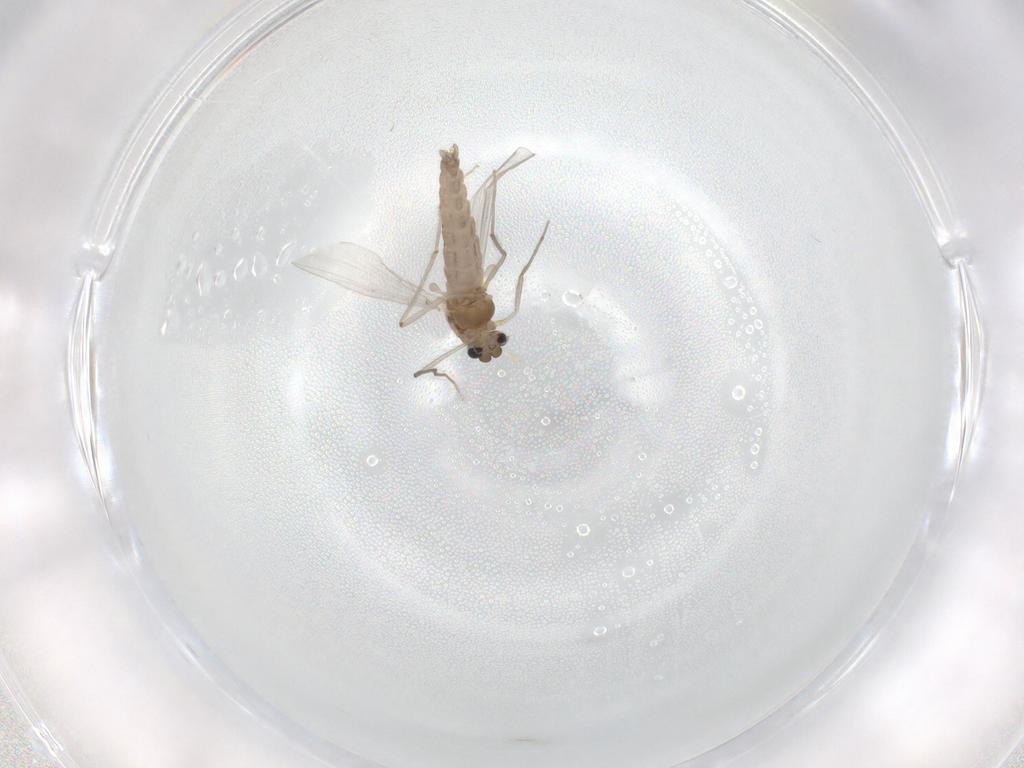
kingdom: Animalia
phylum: Arthropoda
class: Insecta
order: Diptera
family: Chironomidae
